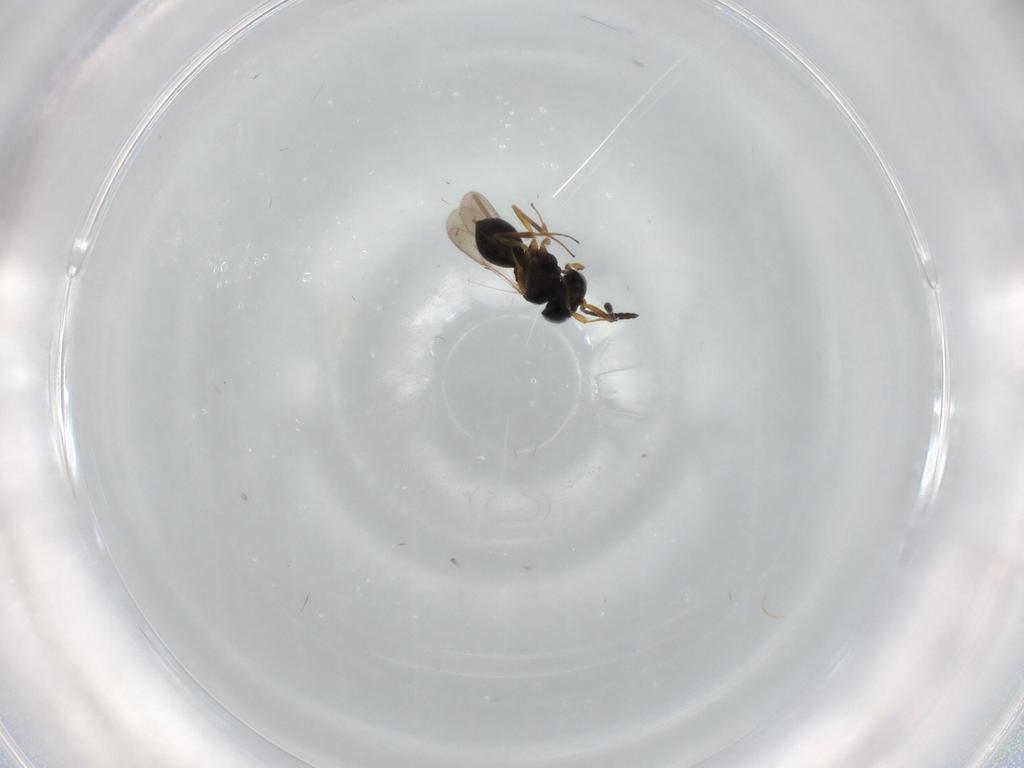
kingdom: Animalia
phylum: Arthropoda
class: Insecta
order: Hymenoptera
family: Scelionidae
